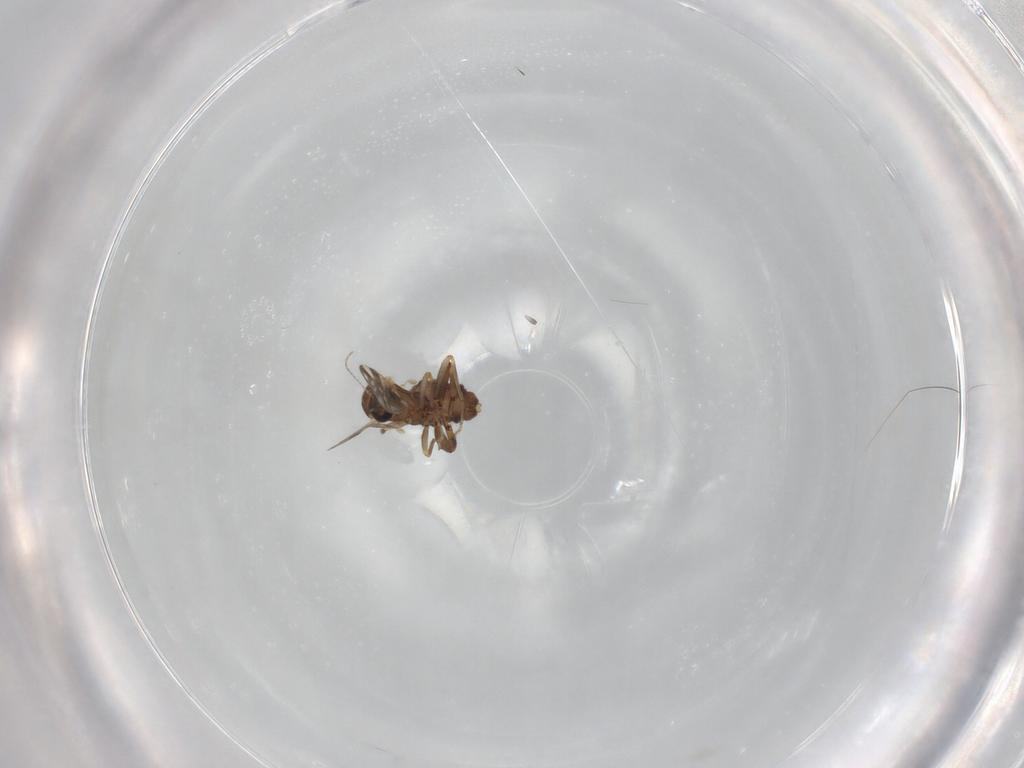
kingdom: Animalia
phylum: Arthropoda
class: Insecta
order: Diptera
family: Ceratopogonidae
